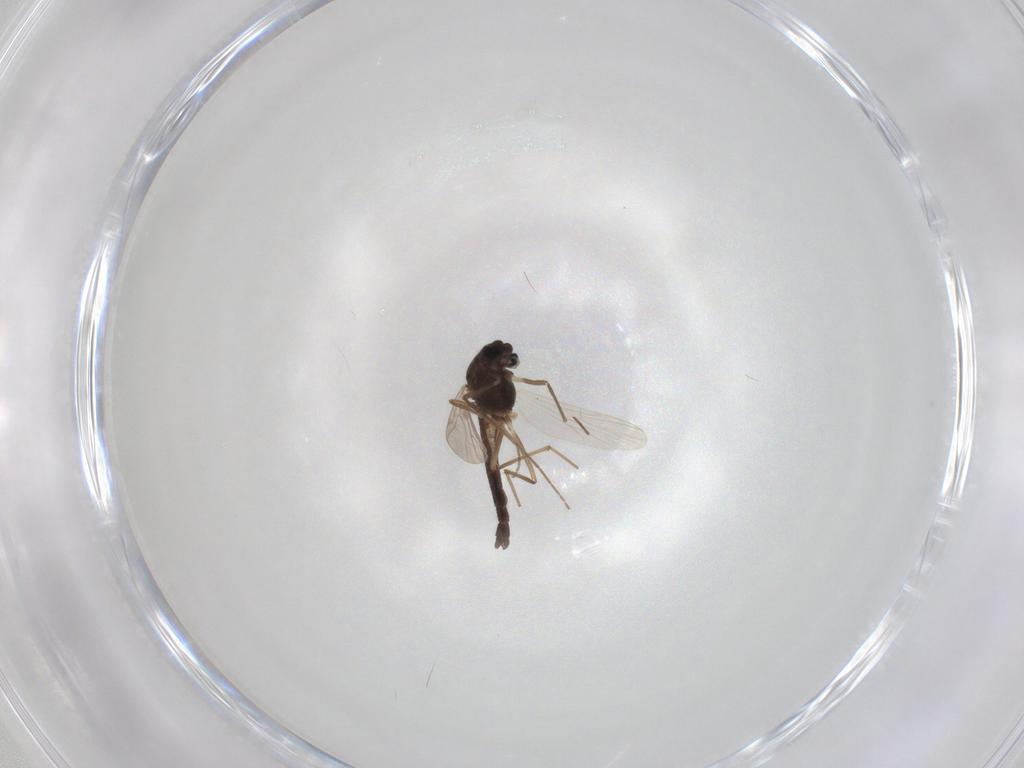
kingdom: Animalia
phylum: Arthropoda
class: Insecta
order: Diptera
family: Chironomidae
